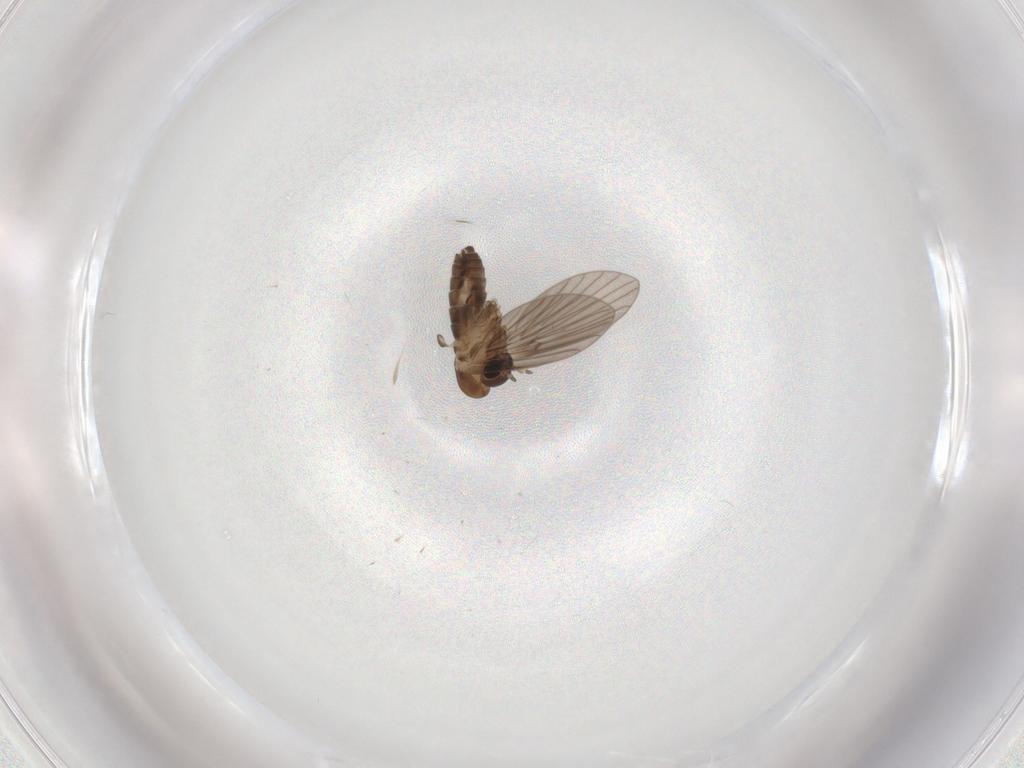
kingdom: Animalia
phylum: Arthropoda
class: Insecta
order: Diptera
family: Psychodidae
